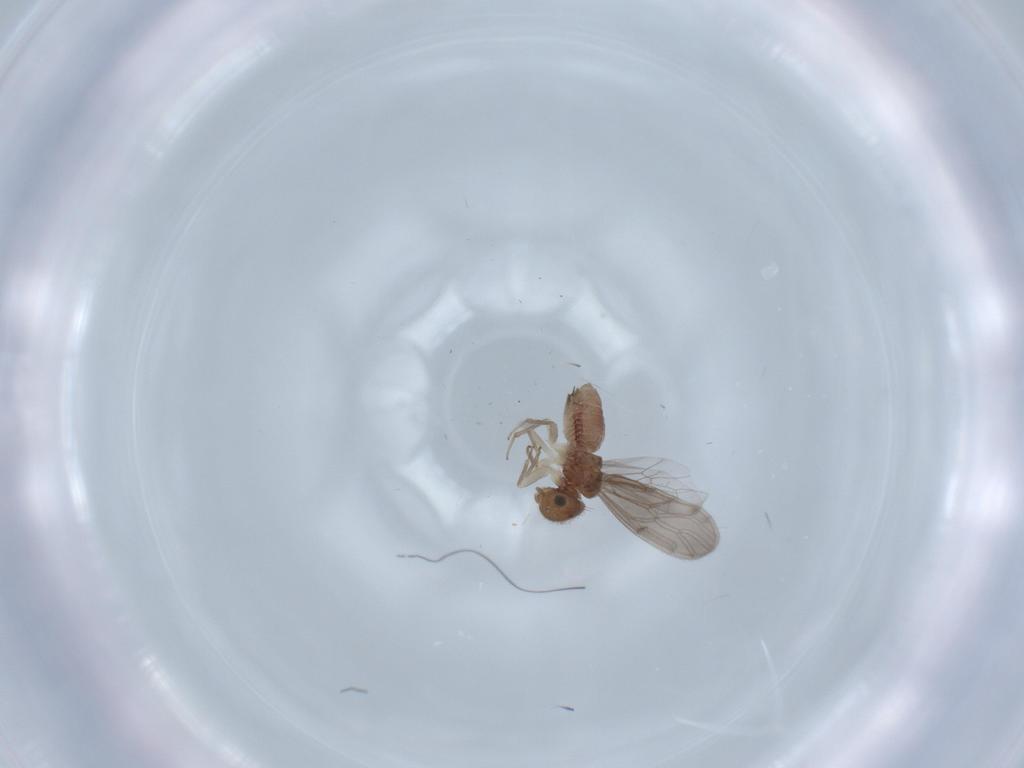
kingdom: Animalia
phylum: Arthropoda
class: Insecta
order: Psocodea
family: Ectopsocidae
